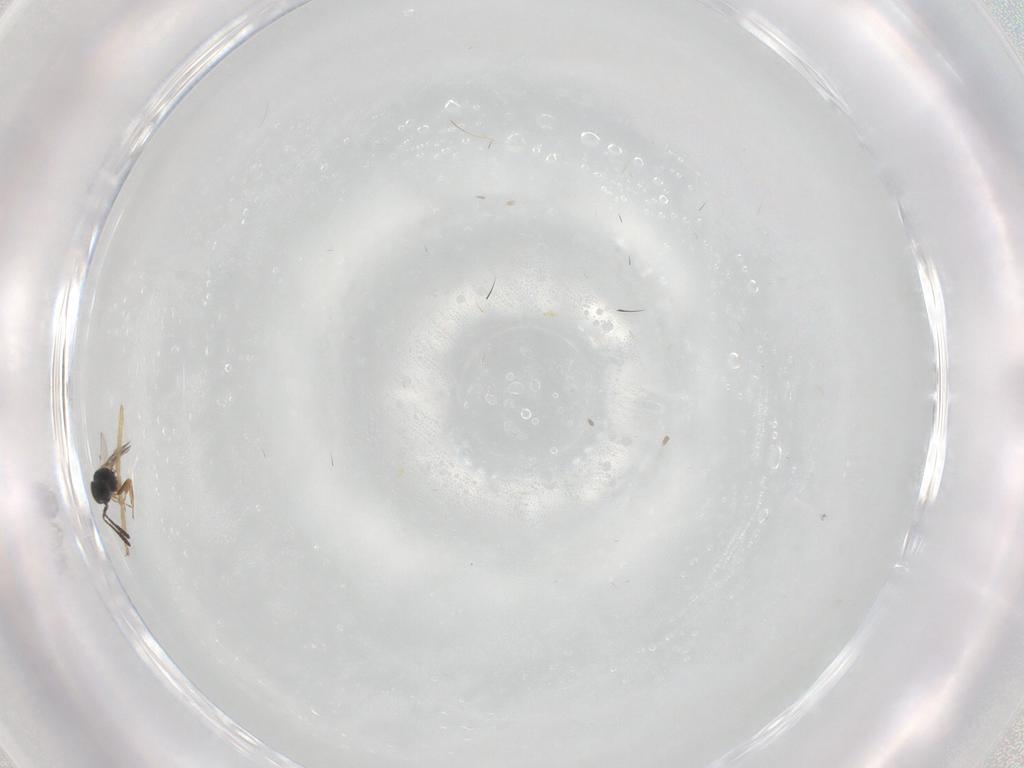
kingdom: Animalia
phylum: Arthropoda
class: Insecta
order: Hymenoptera
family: Scelionidae
